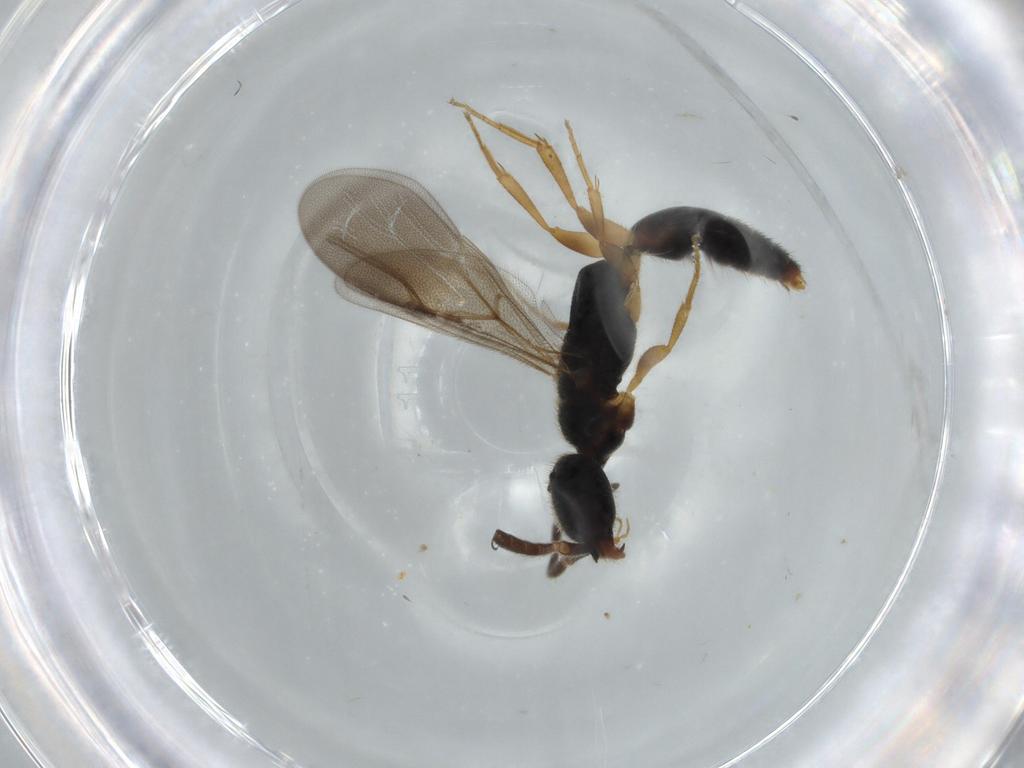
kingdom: Animalia
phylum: Arthropoda
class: Insecta
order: Hymenoptera
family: Bethylidae
